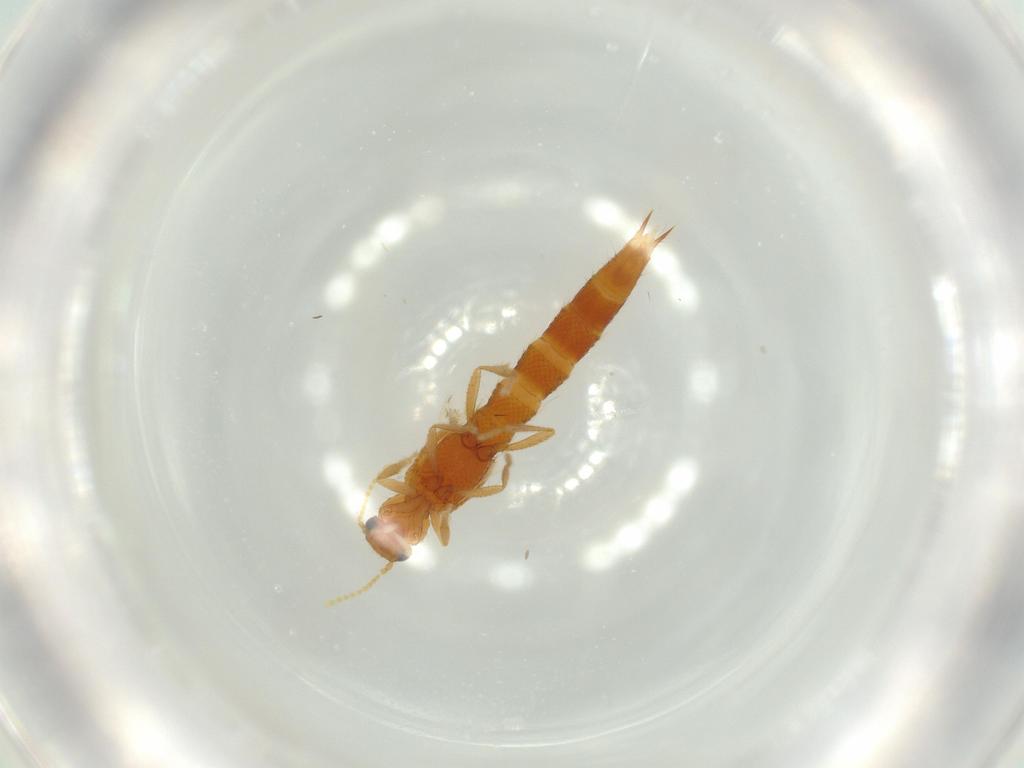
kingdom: Animalia
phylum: Arthropoda
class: Insecta
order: Coleoptera
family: Staphylinidae
